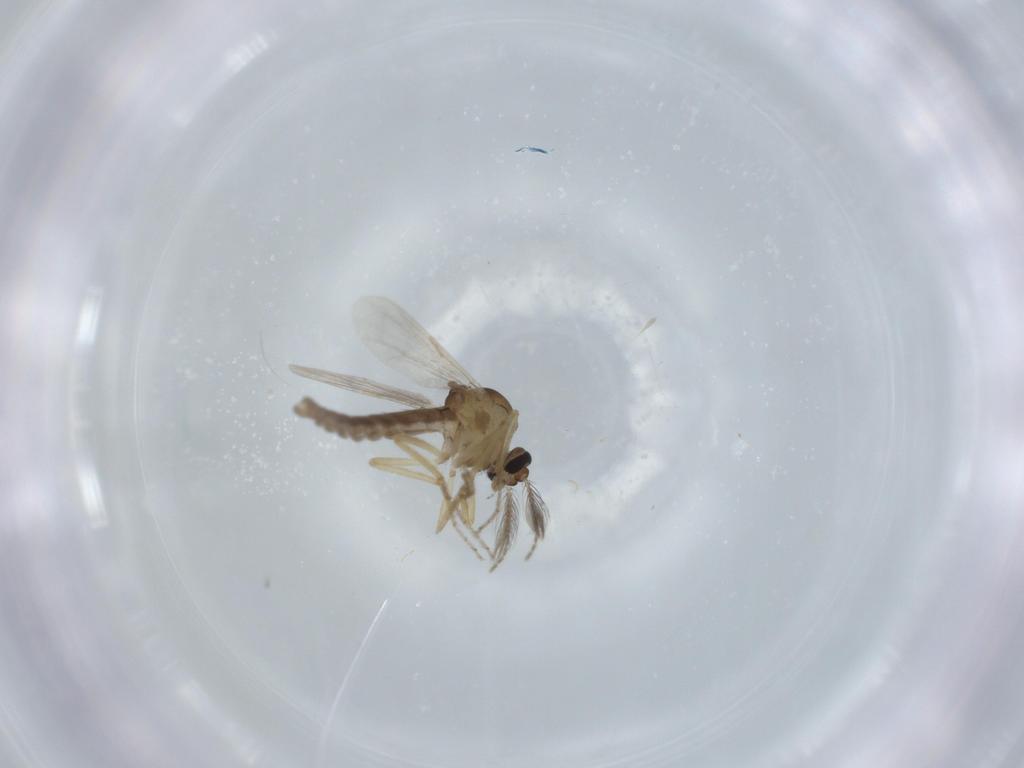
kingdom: Animalia
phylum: Arthropoda
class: Insecta
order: Diptera
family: Ceratopogonidae
